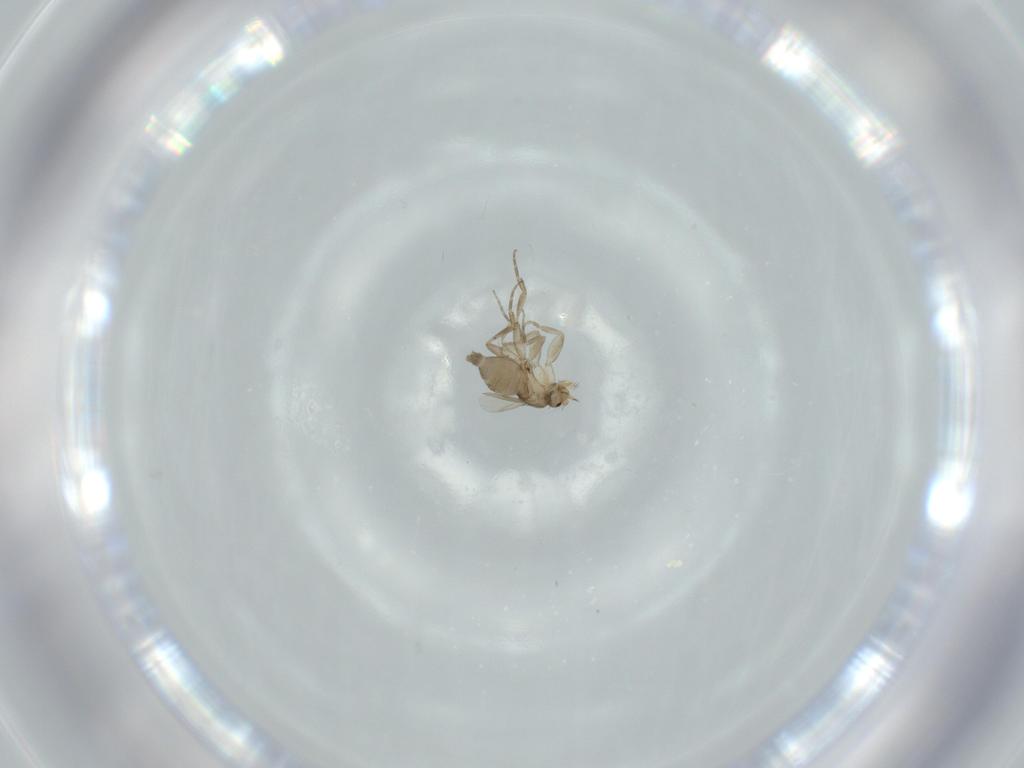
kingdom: Animalia
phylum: Arthropoda
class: Insecta
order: Diptera
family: Phoridae
